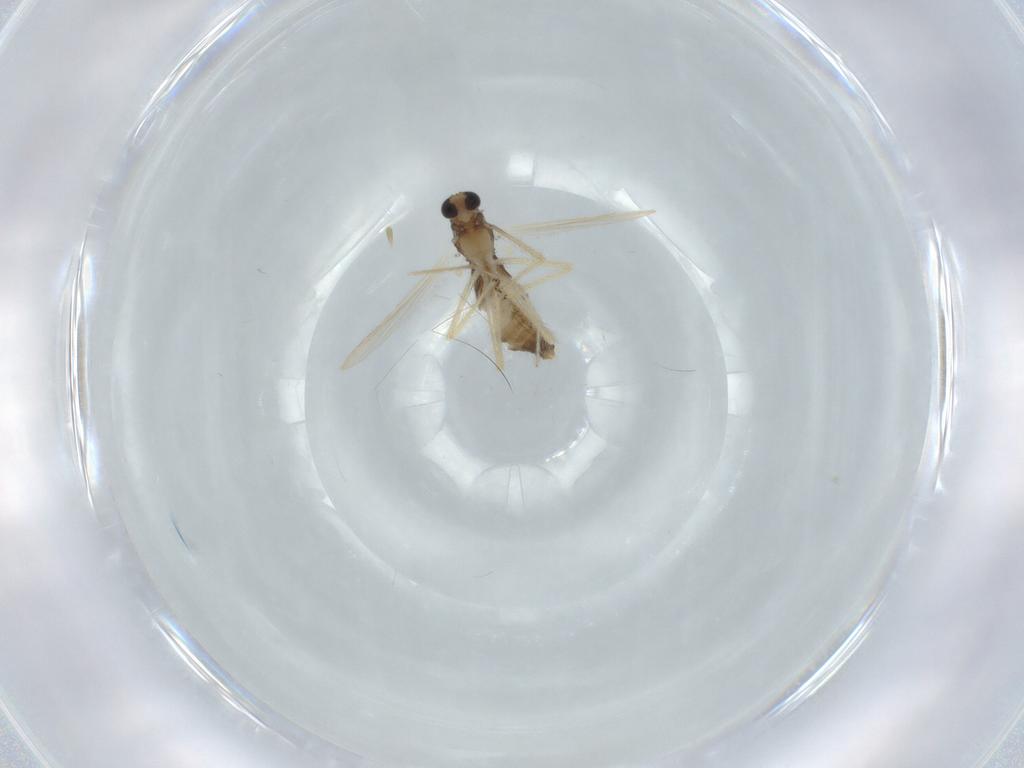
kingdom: Animalia
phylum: Arthropoda
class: Insecta
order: Diptera
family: Chironomidae
